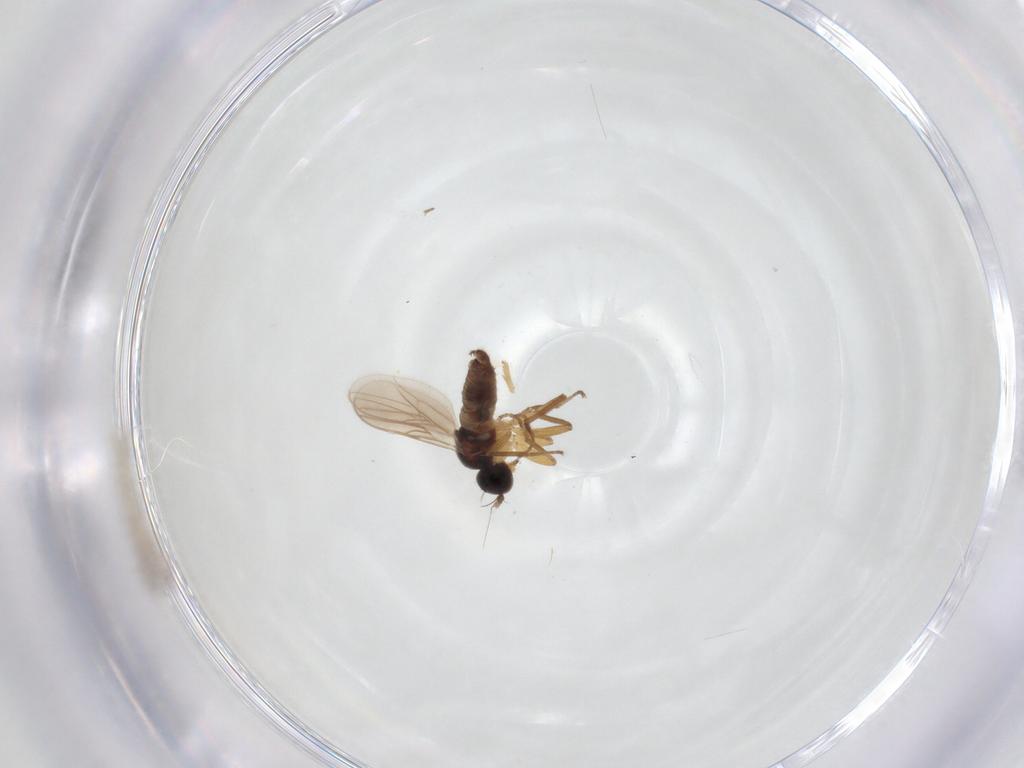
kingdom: Animalia
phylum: Arthropoda
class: Insecta
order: Diptera
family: Hybotidae
